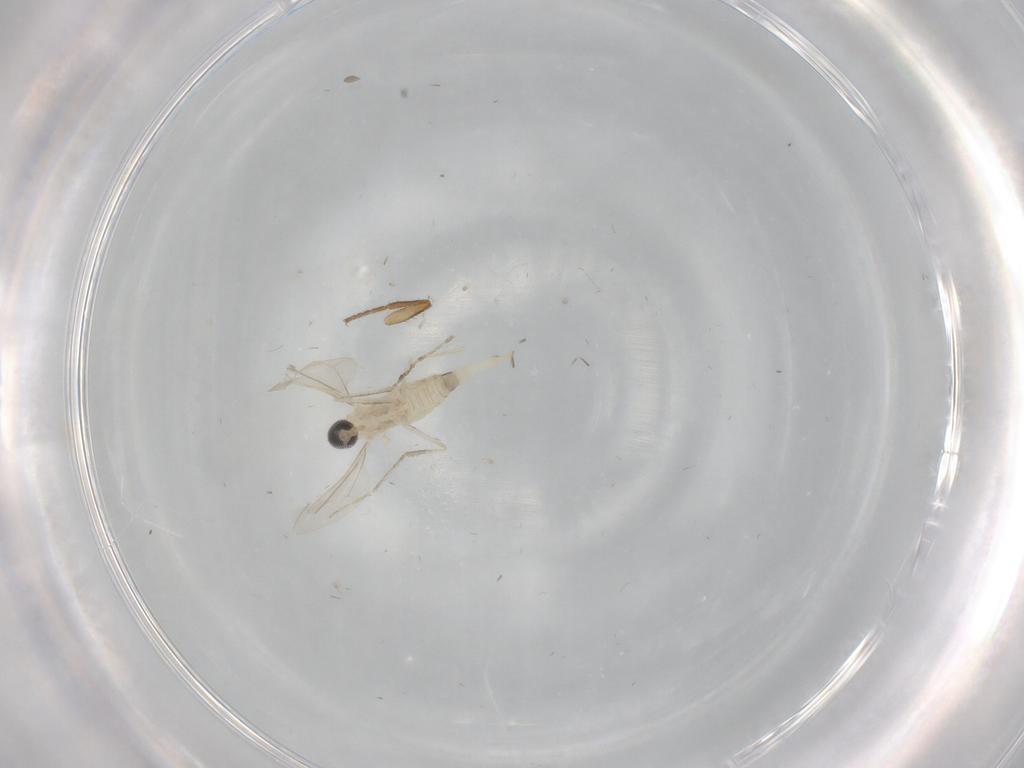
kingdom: Animalia
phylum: Arthropoda
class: Insecta
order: Diptera
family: Cecidomyiidae
